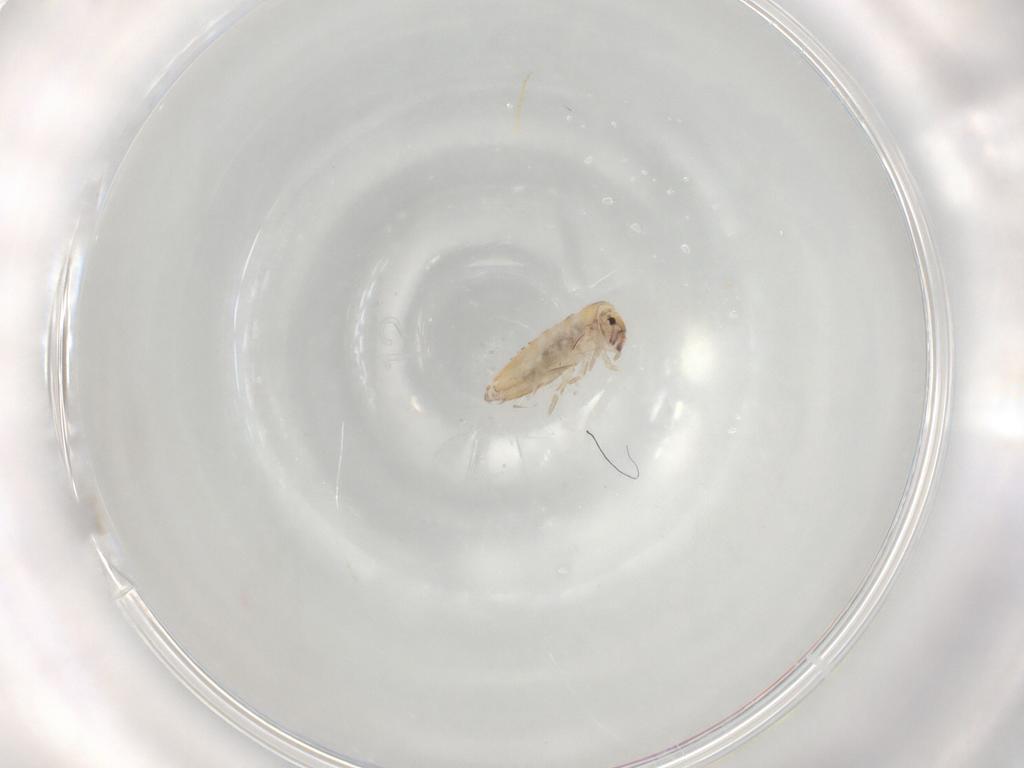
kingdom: Animalia
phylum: Arthropoda
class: Collembola
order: Entomobryomorpha
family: Entomobryidae
